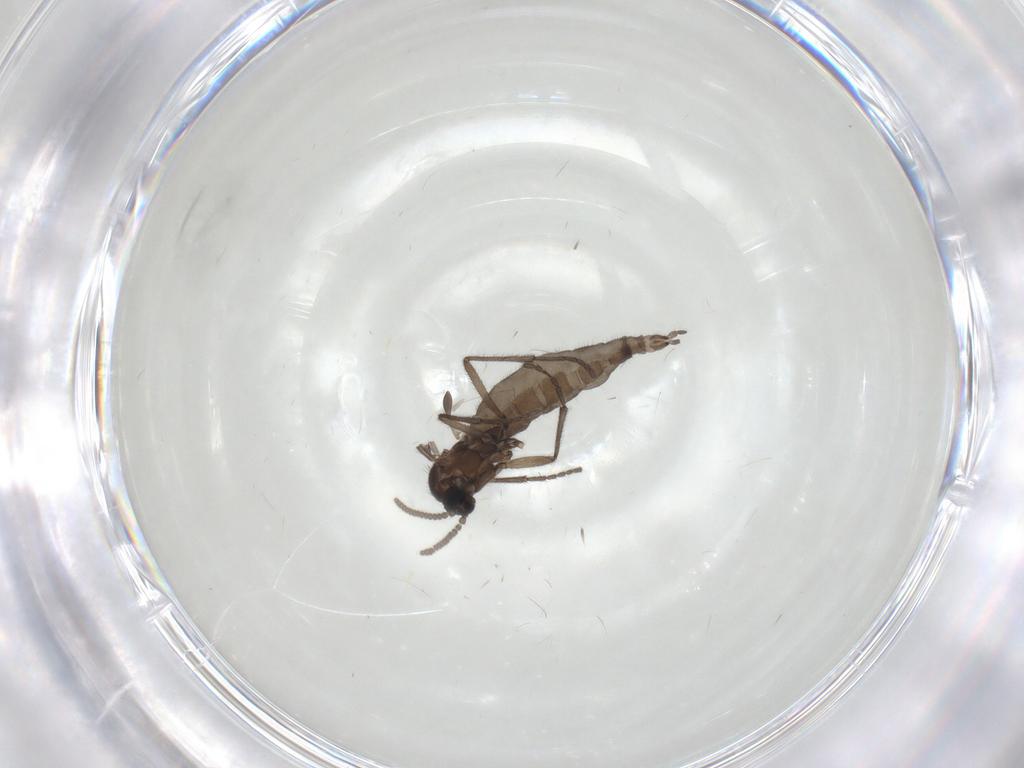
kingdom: Animalia
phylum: Arthropoda
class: Insecta
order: Diptera
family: Sciaridae
